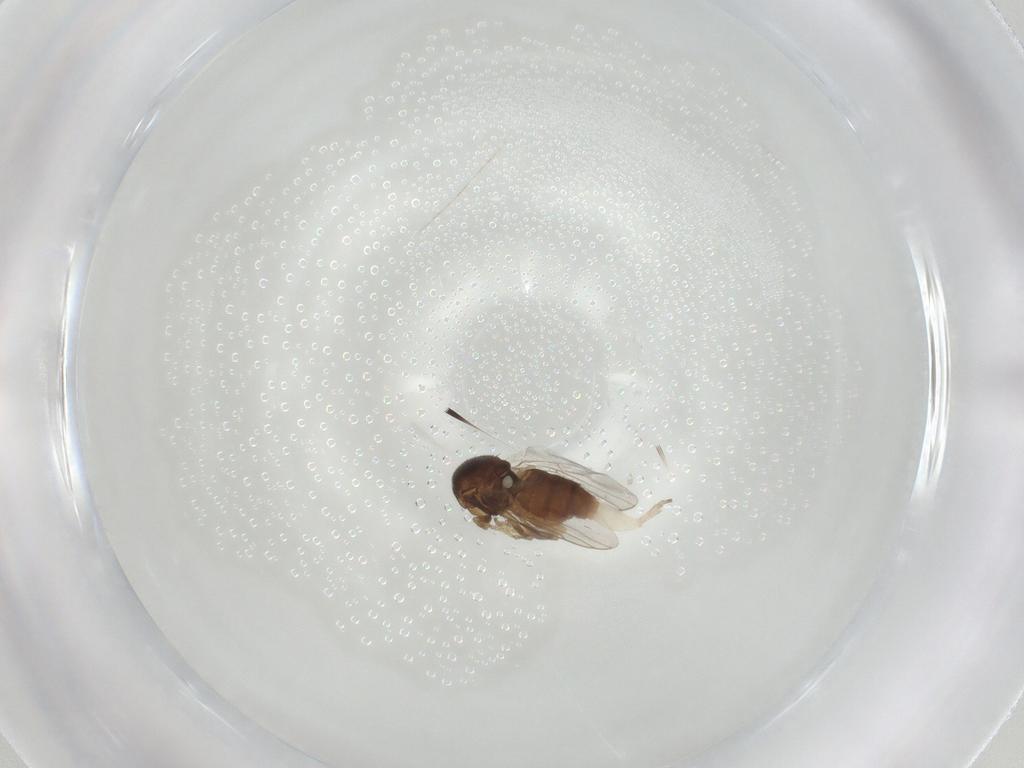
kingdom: Animalia
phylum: Arthropoda
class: Insecta
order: Diptera
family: Chloropidae
